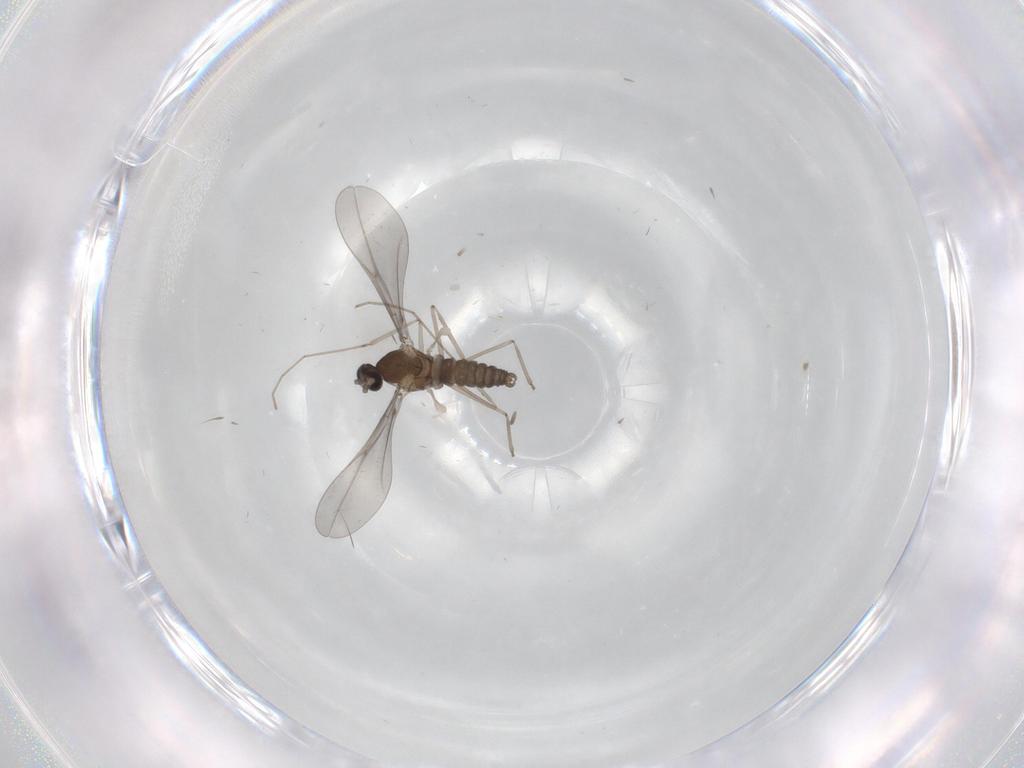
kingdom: Animalia
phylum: Arthropoda
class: Insecta
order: Diptera
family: Cecidomyiidae
